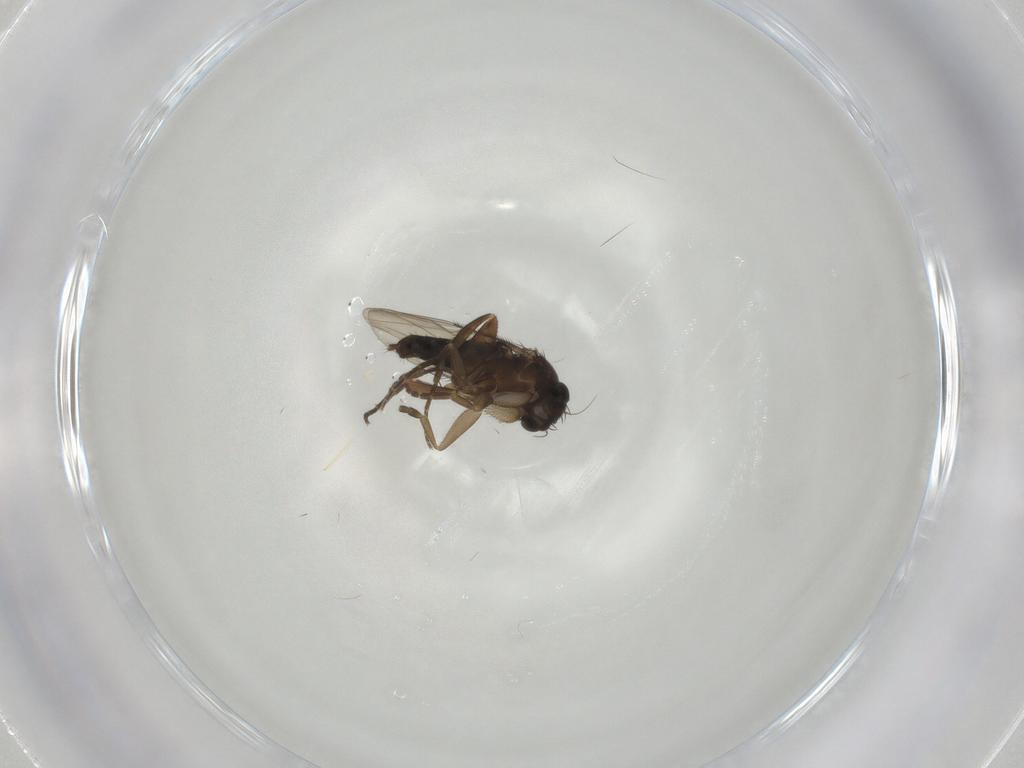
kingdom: Animalia
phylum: Arthropoda
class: Insecta
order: Diptera
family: Phoridae
